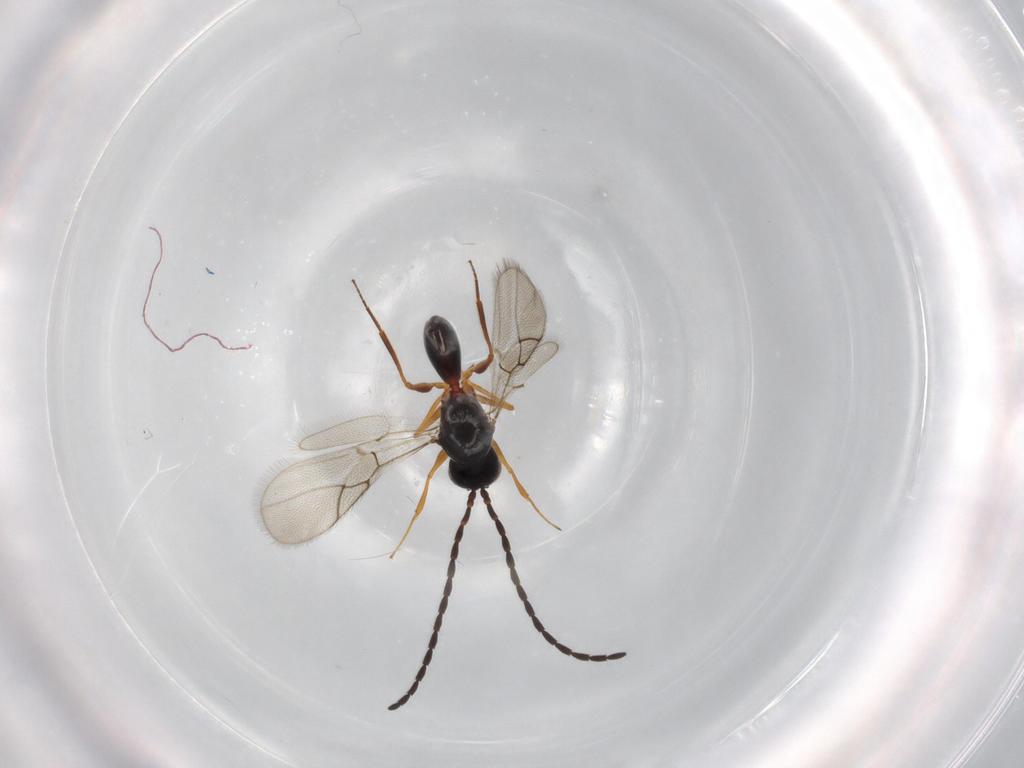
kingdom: Animalia
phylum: Arthropoda
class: Insecta
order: Hymenoptera
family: Figitidae
